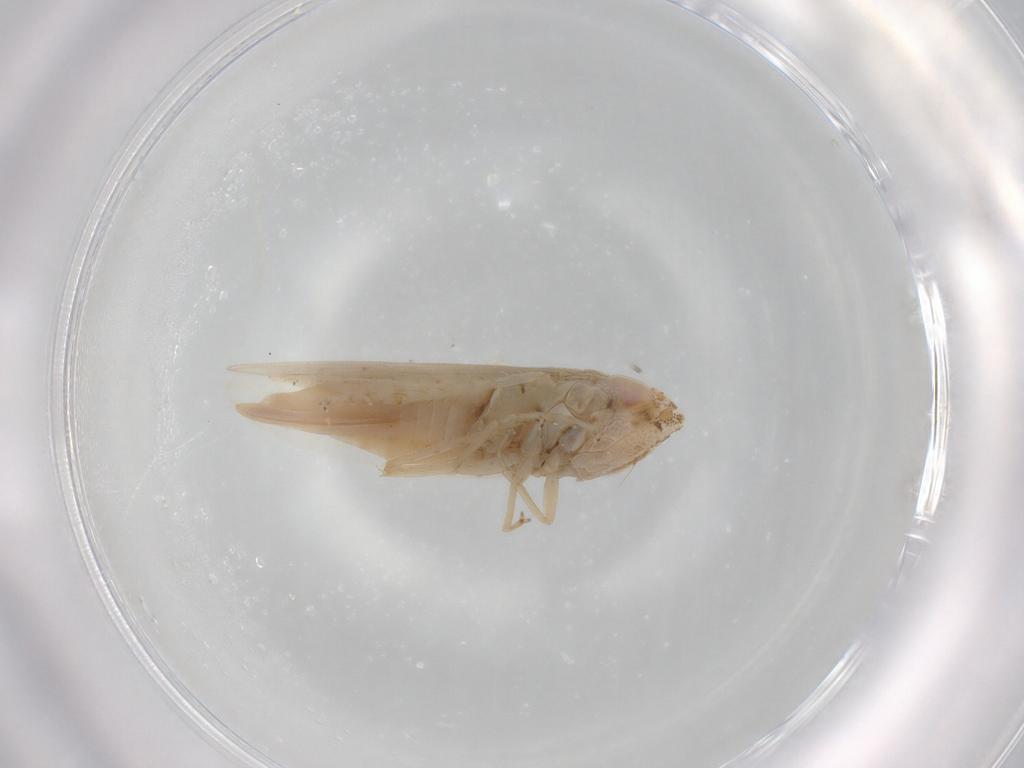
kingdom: Animalia
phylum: Arthropoda
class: Insecta
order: Hemiptera
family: Cicadellidae
